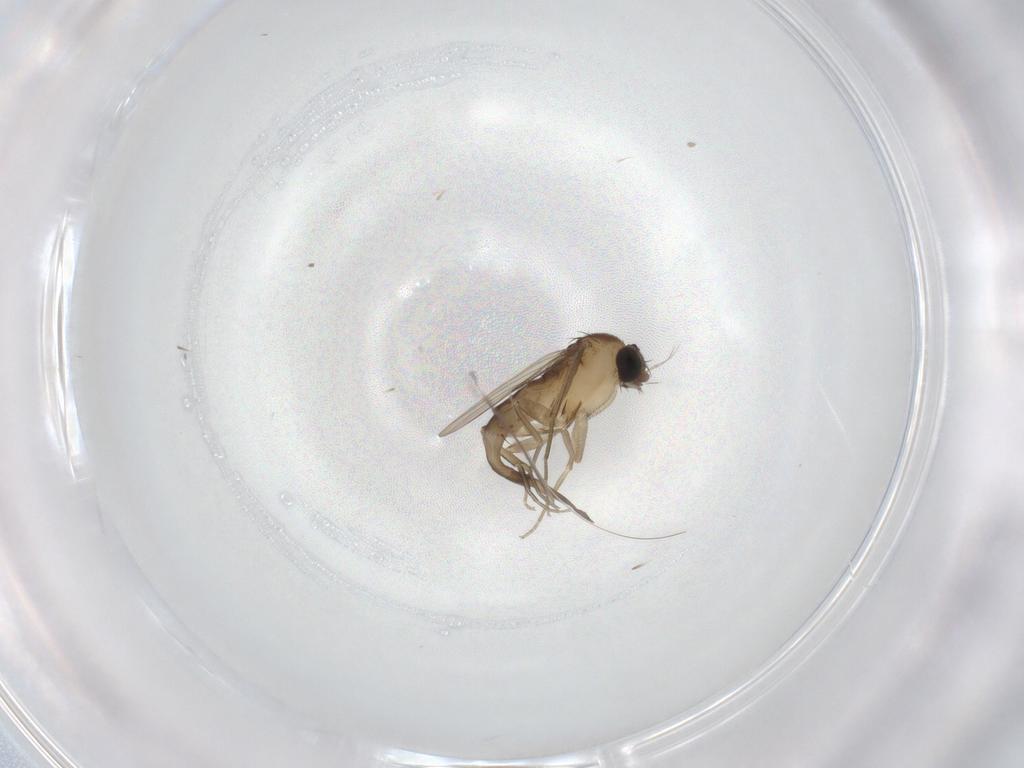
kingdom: Animalia
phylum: Arthropoda
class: Insecta
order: Diptera
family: Phoridae
